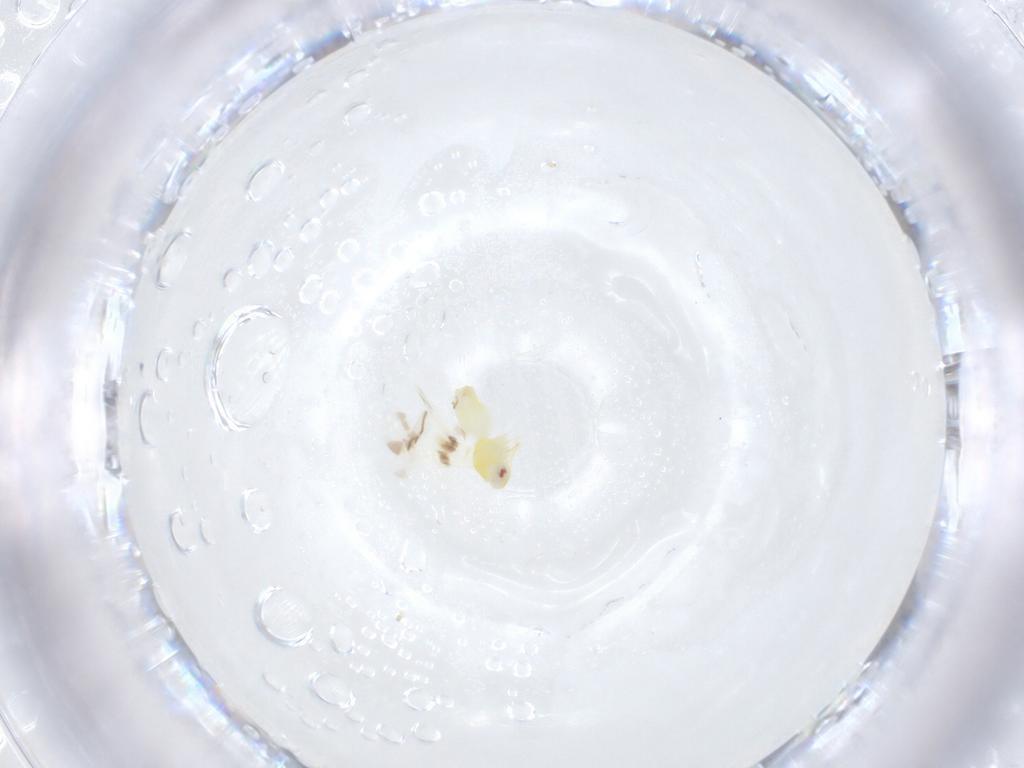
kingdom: Animalia
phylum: Arthropoda
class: Insecta
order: Hemiptera
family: Aleyrodidae
